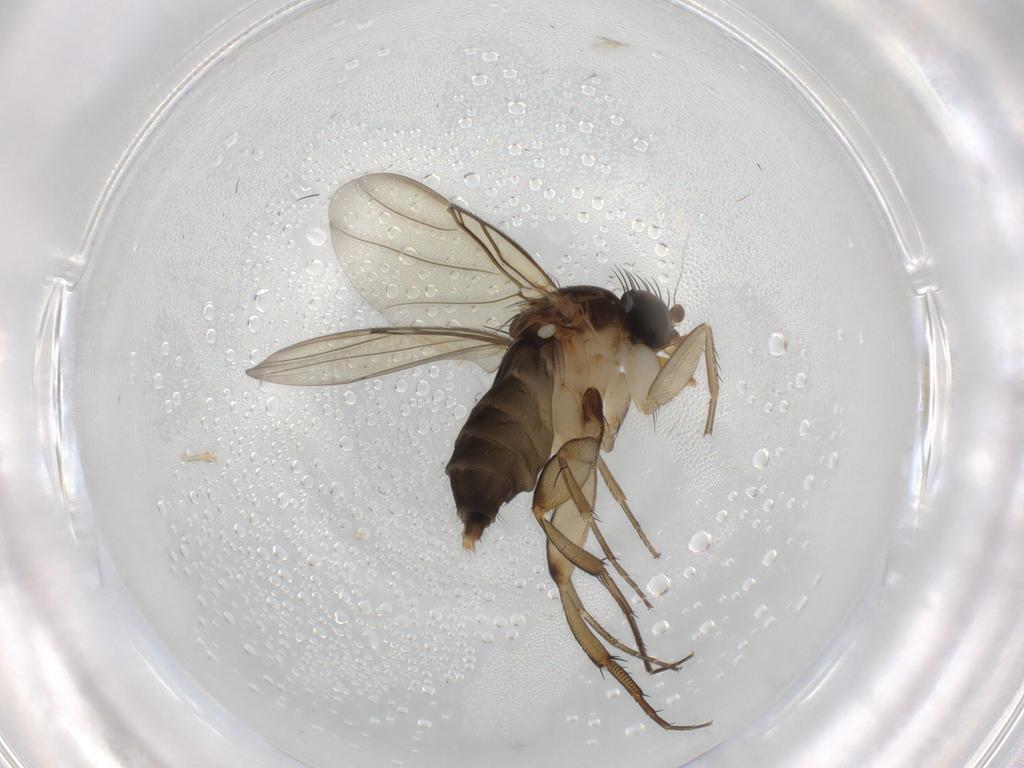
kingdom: Animalia
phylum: Arthropoda
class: Insecta
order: Diptera
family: Phoridae
